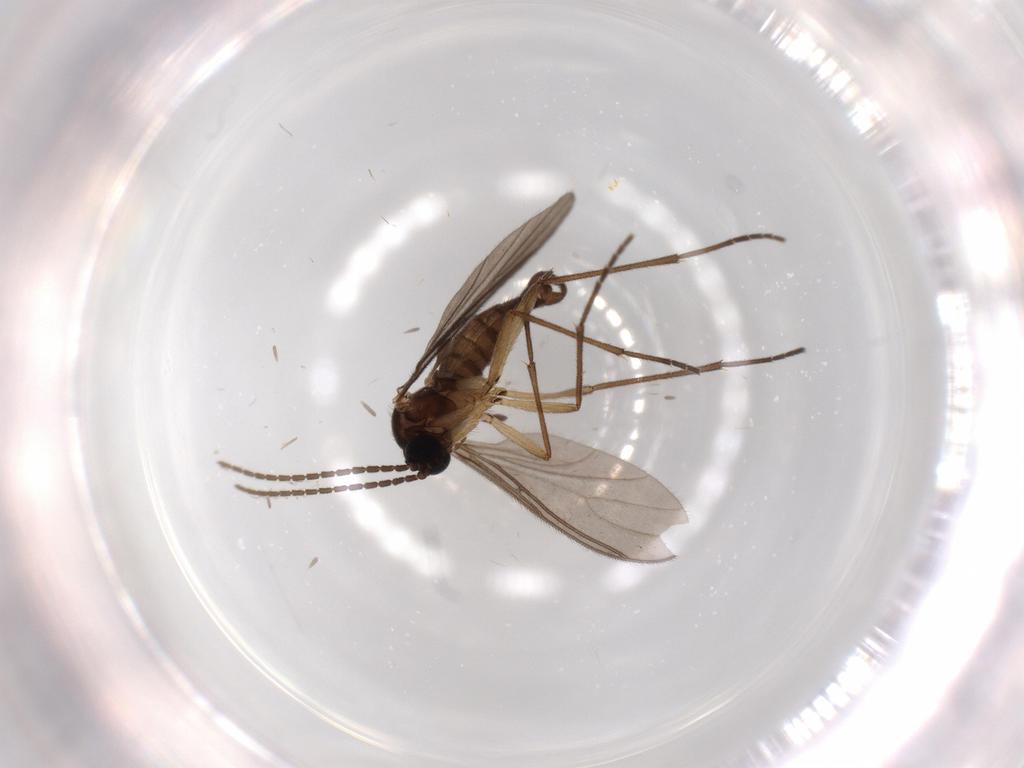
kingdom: Animalia
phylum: Arthropoda
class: Insecta
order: Diptera
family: Sciaridae
